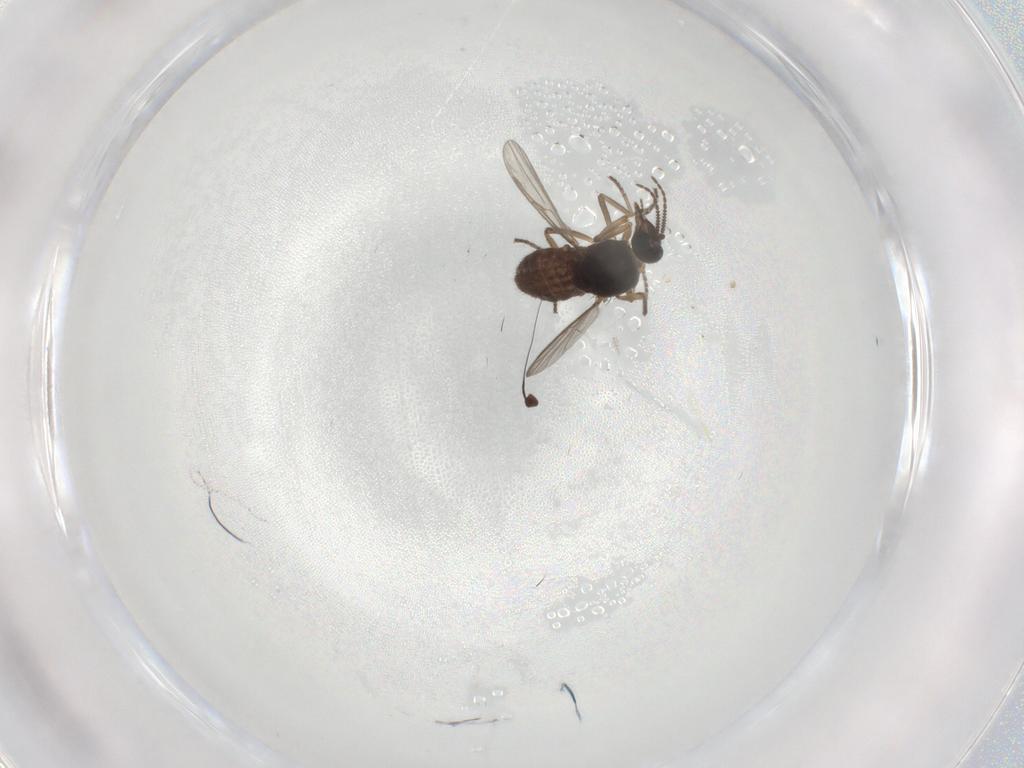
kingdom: Animalia
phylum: Arthropoda
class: Insecta
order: Diptera
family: Ceratopogonidae
